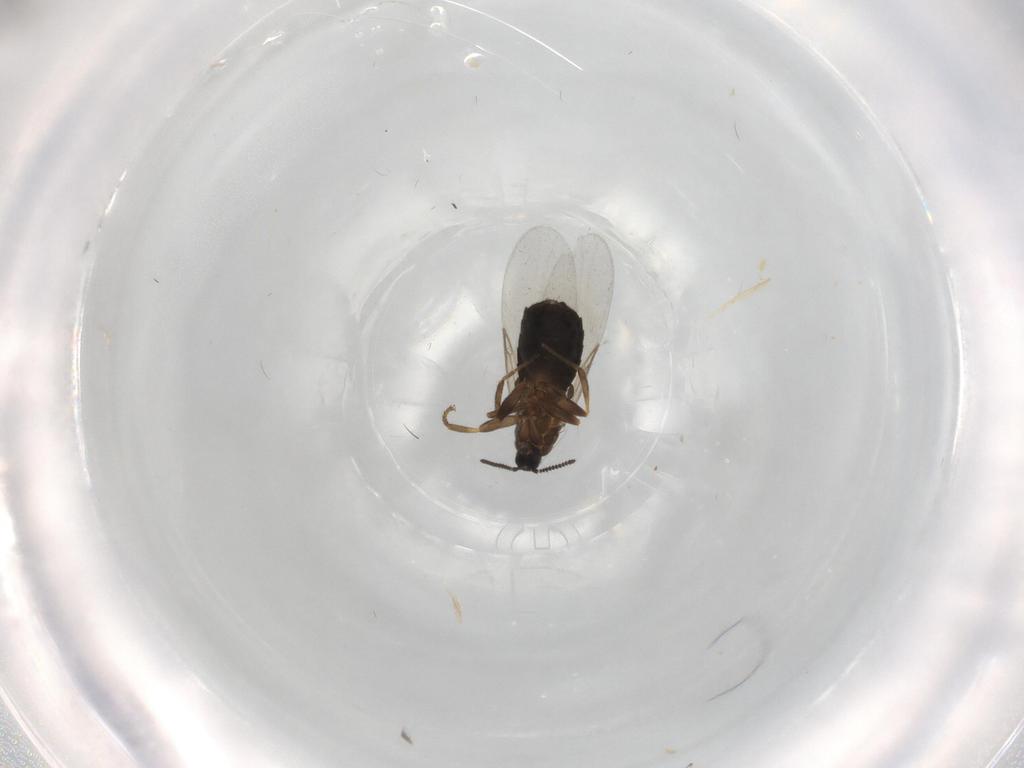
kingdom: Animalia
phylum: Arthropoda
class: Insecta
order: Diptera
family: Scatopsidae
